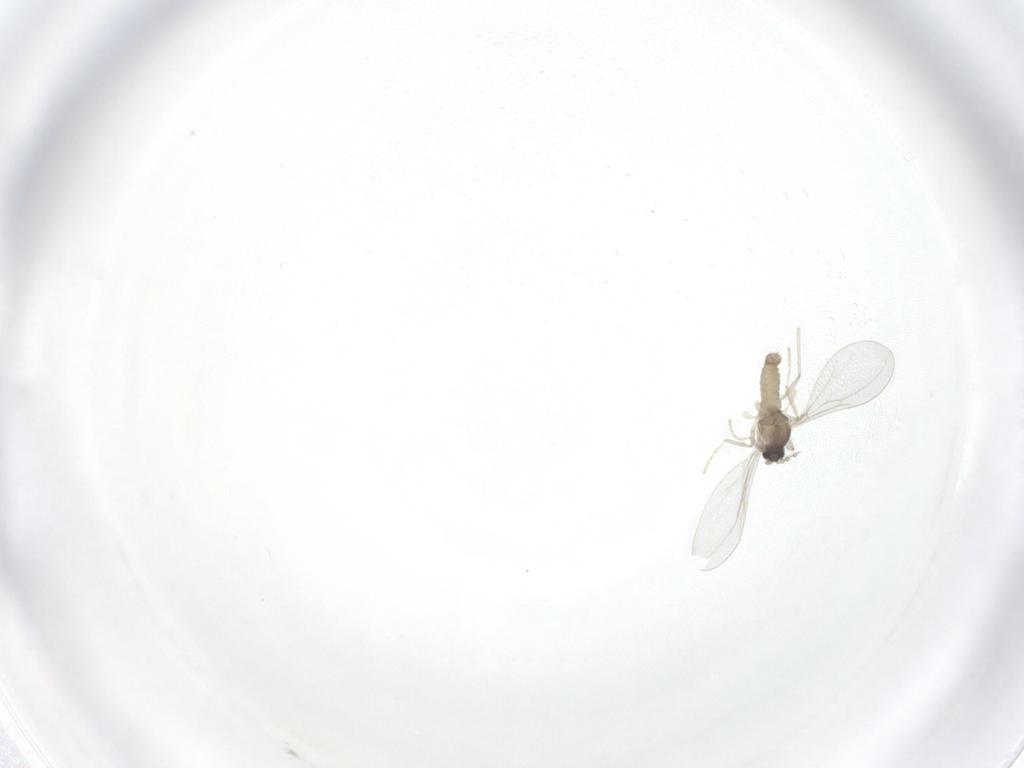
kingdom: Animalia
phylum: Arthropoda
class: Insecta
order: Diptera
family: Cecidomyiidae
